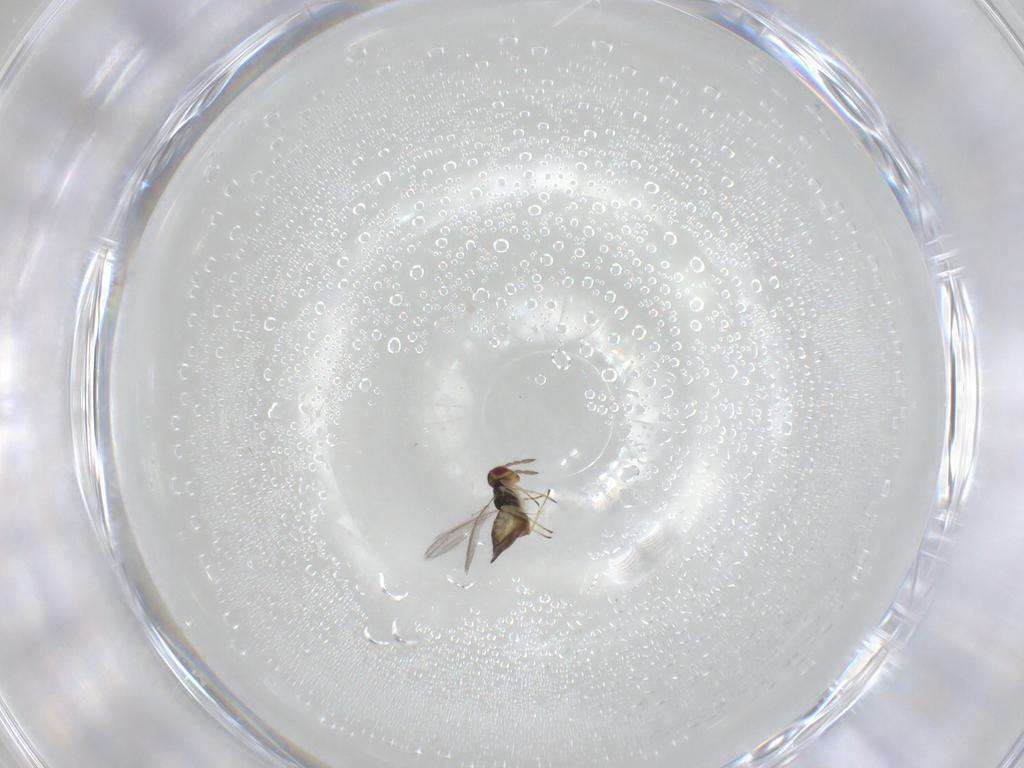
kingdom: Animalia
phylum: Arthropoda
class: Insecta
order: Hymenoptera
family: Eulophidae
